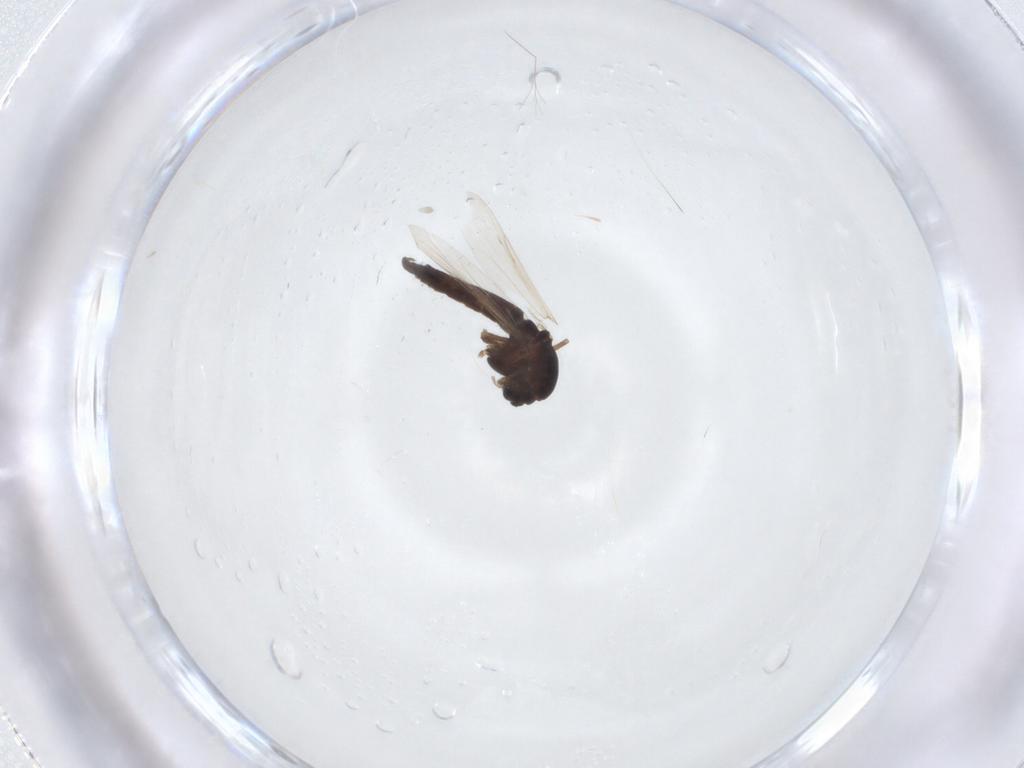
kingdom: Animalia
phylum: Arthropoda
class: Insecta
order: Diptera
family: Chironomidae
